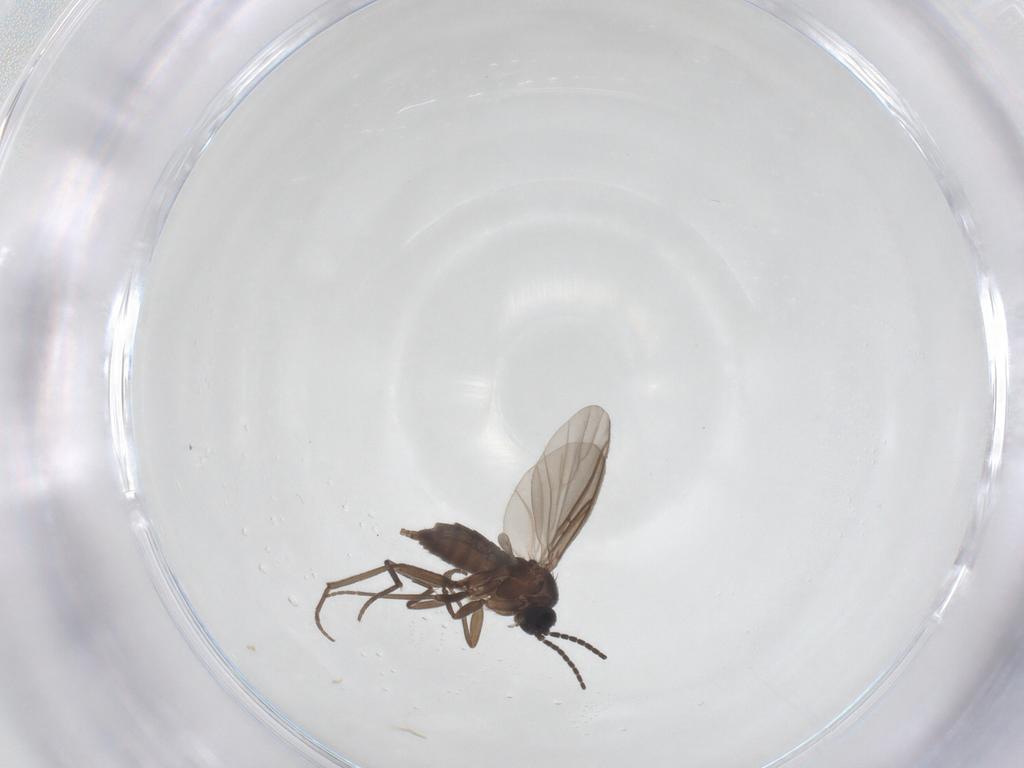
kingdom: Animalia
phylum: Arthropoda
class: Insecta
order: Diptera
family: Sciaridae
